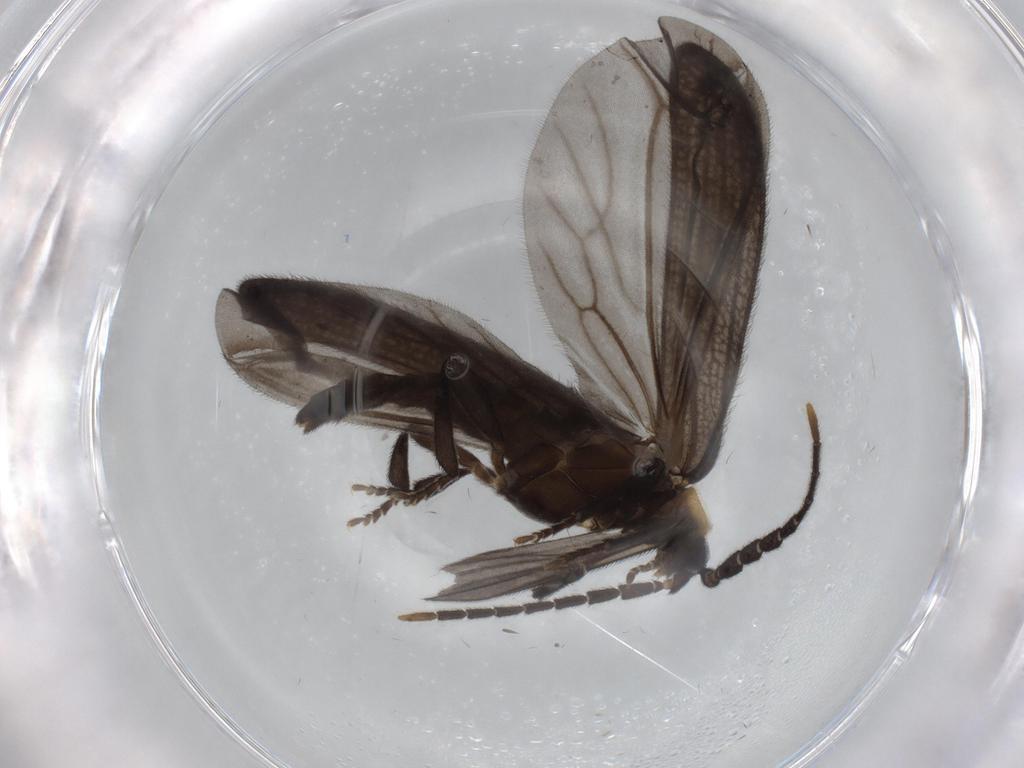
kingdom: Animalia
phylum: Arthropoda
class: Insecta
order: Coleoptera
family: Lycidae
